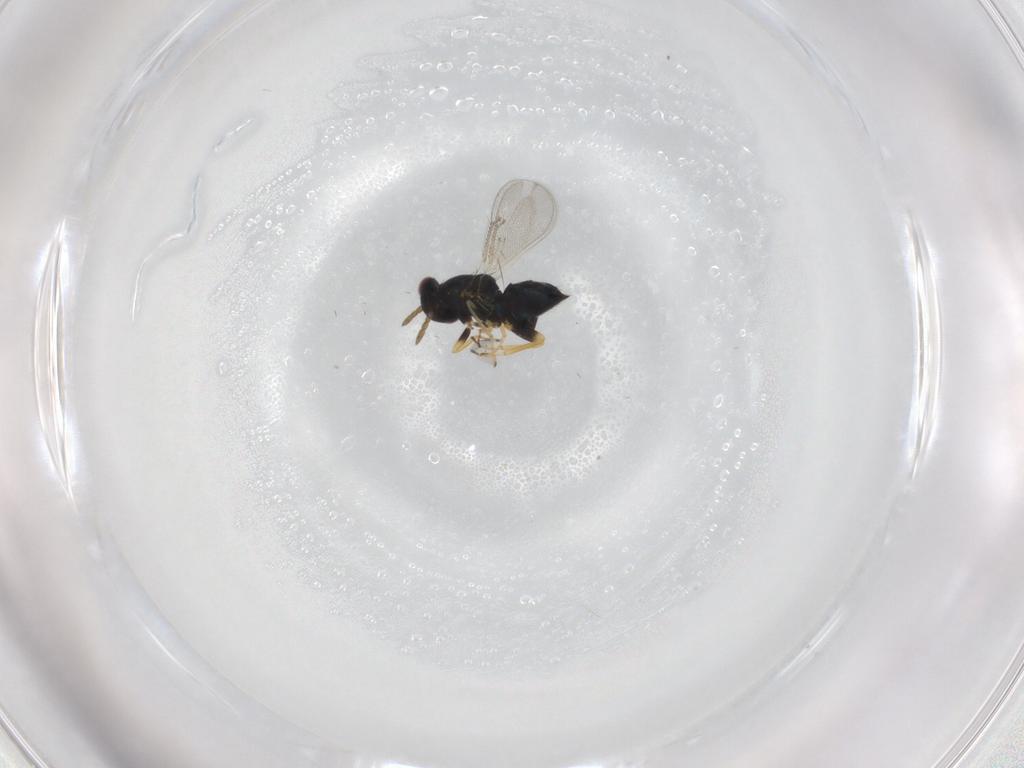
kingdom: Animalia
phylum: Arthropoda
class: Insecta
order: Hymenoptera
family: Eulophidae
